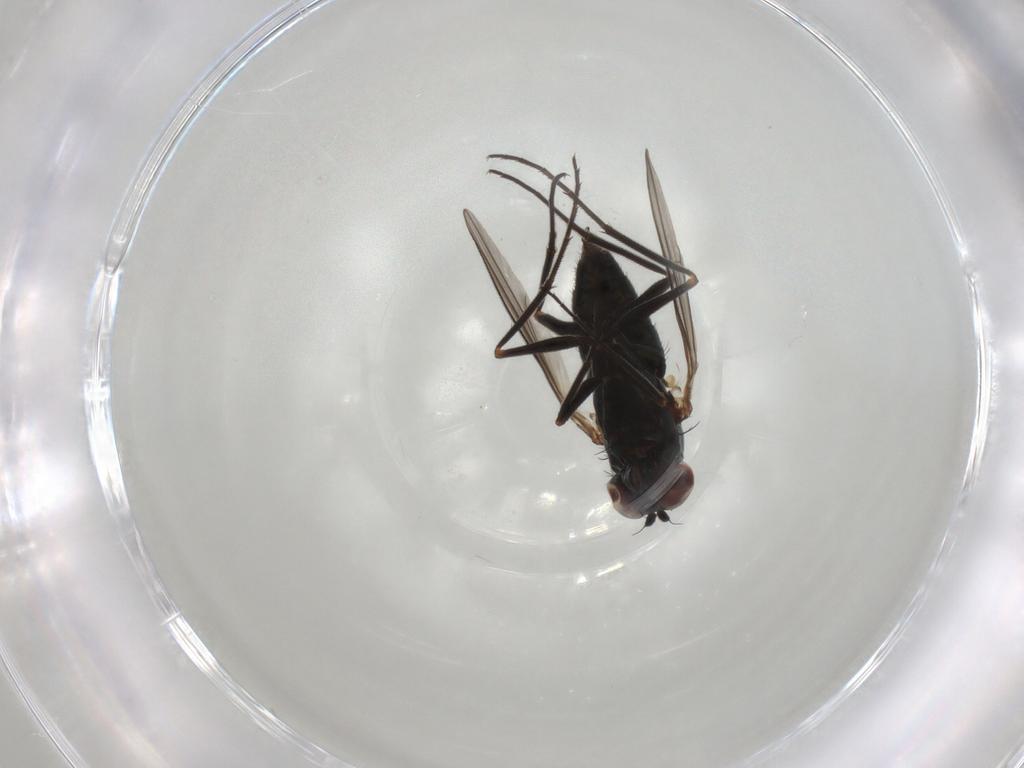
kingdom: Animalia
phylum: Arthropoda
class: Insecta
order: Diptera
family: Dolichopodidae
